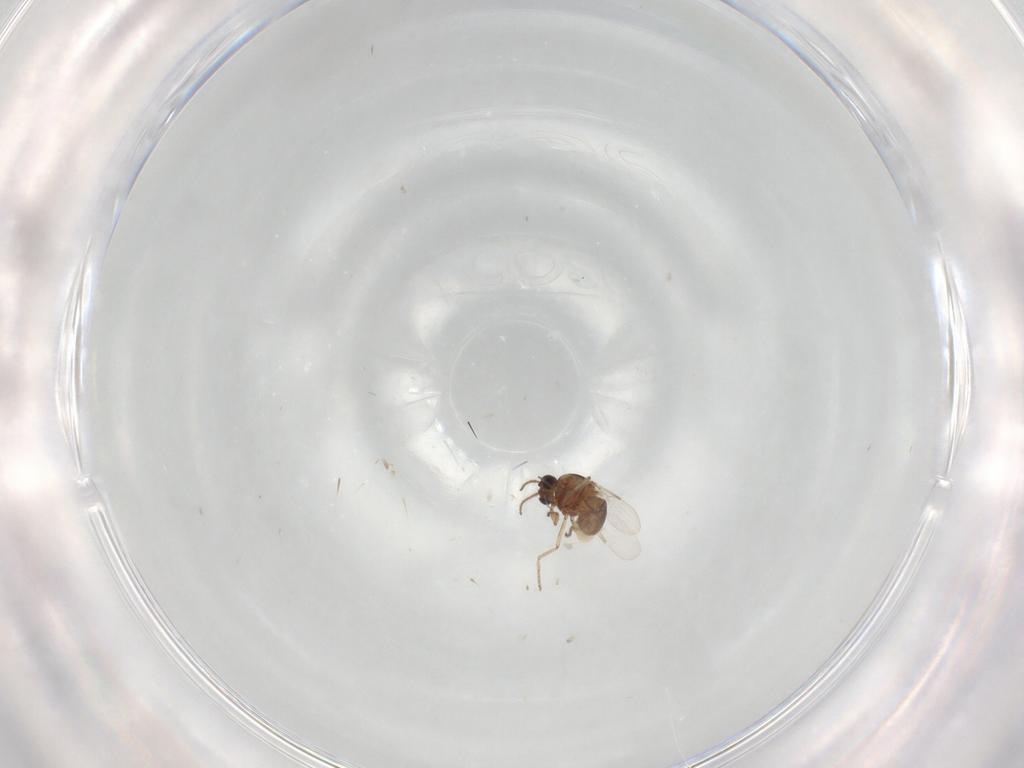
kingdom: Animalia
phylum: Arthropoda
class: Insecta
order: Diptera
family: Ceratopogonidae
